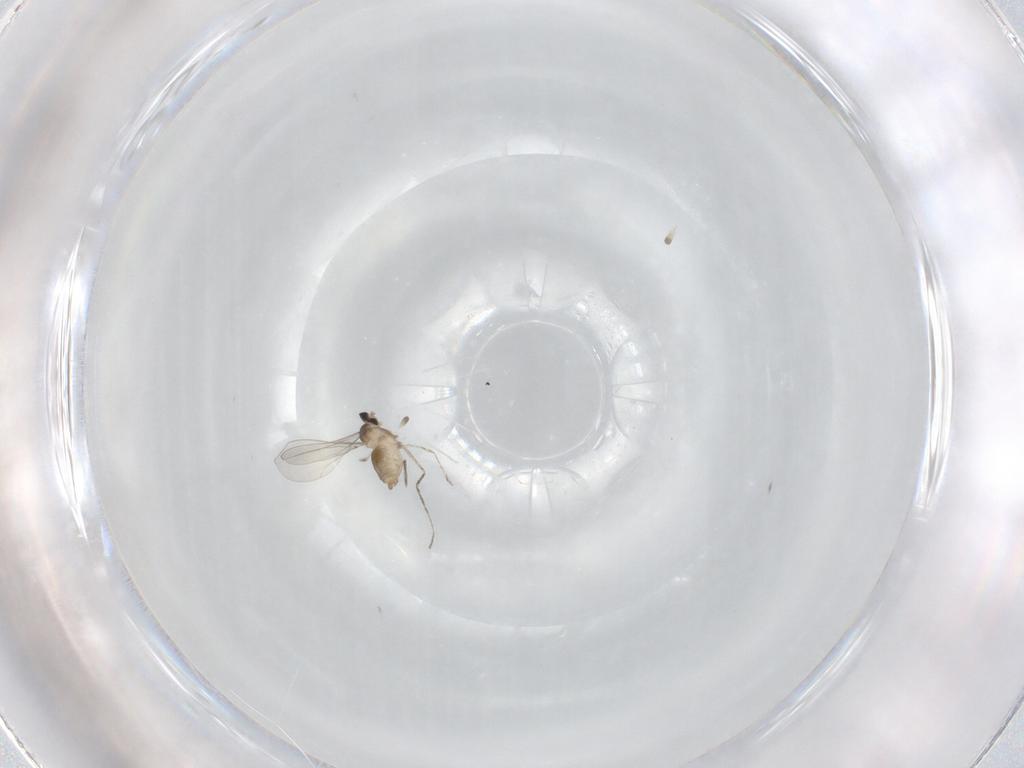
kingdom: Animalia
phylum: Arthropoda
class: Insecta
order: Diptera
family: Cecidomyiidae
